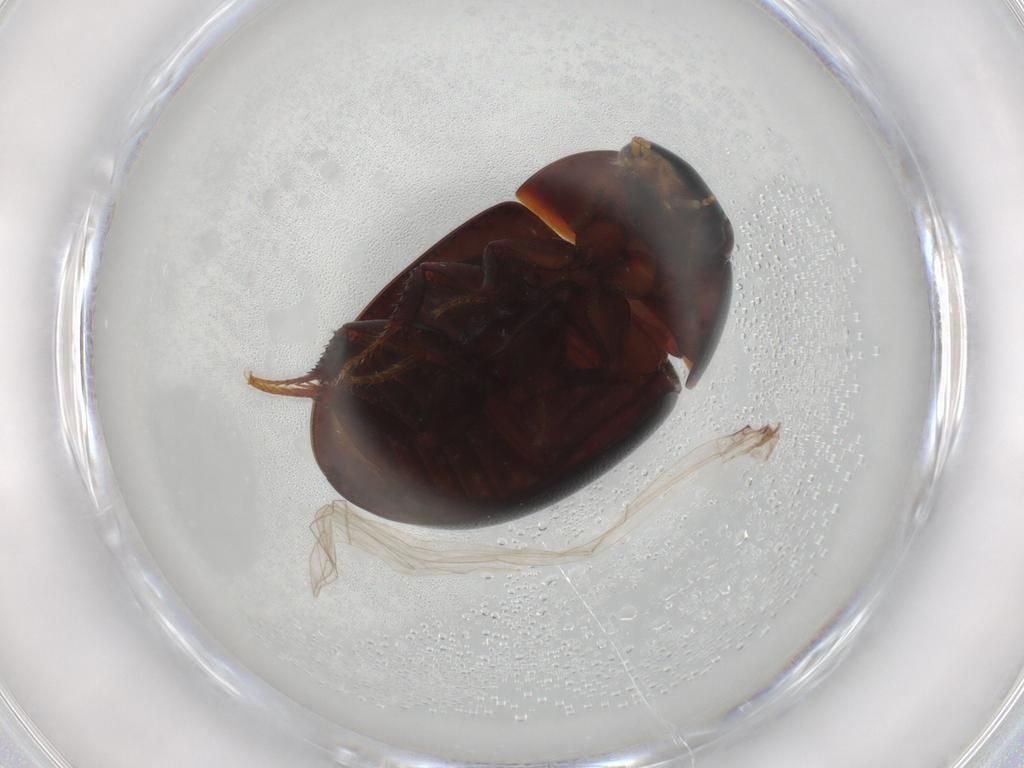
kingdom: Animalia
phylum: Arthropoda
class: Insecta
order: Coleoptera
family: Hydrophilidae
